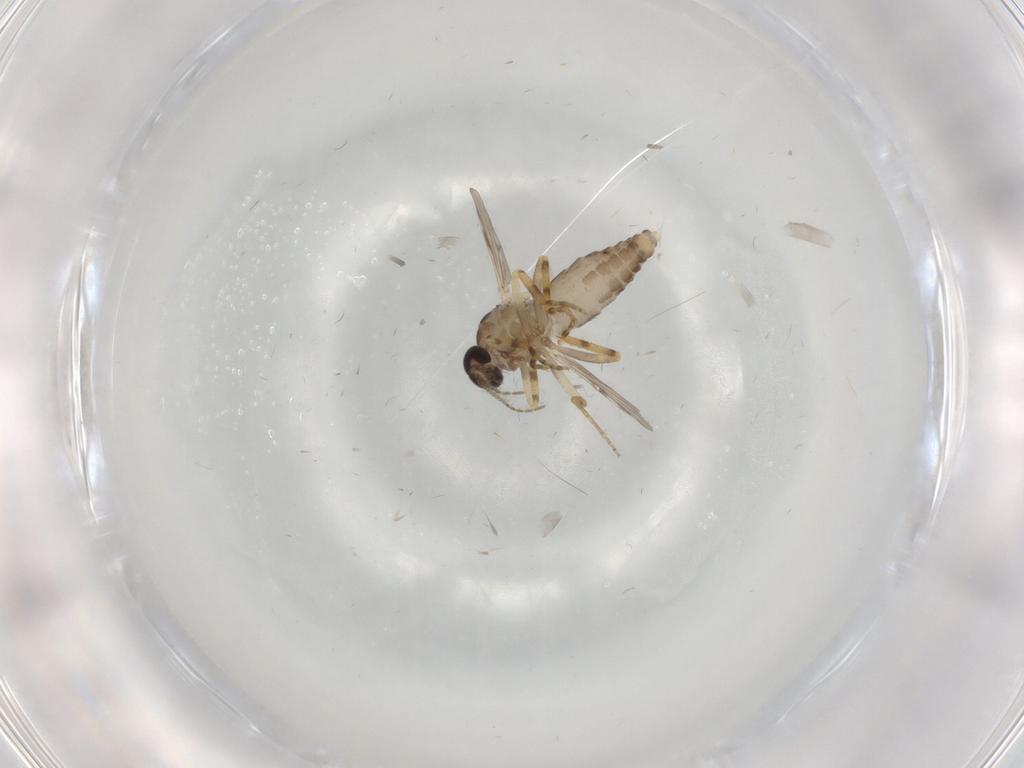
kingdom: Animalia
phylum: Arthropoda
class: Insecta
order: Diptera
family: Ceratopogonidae
